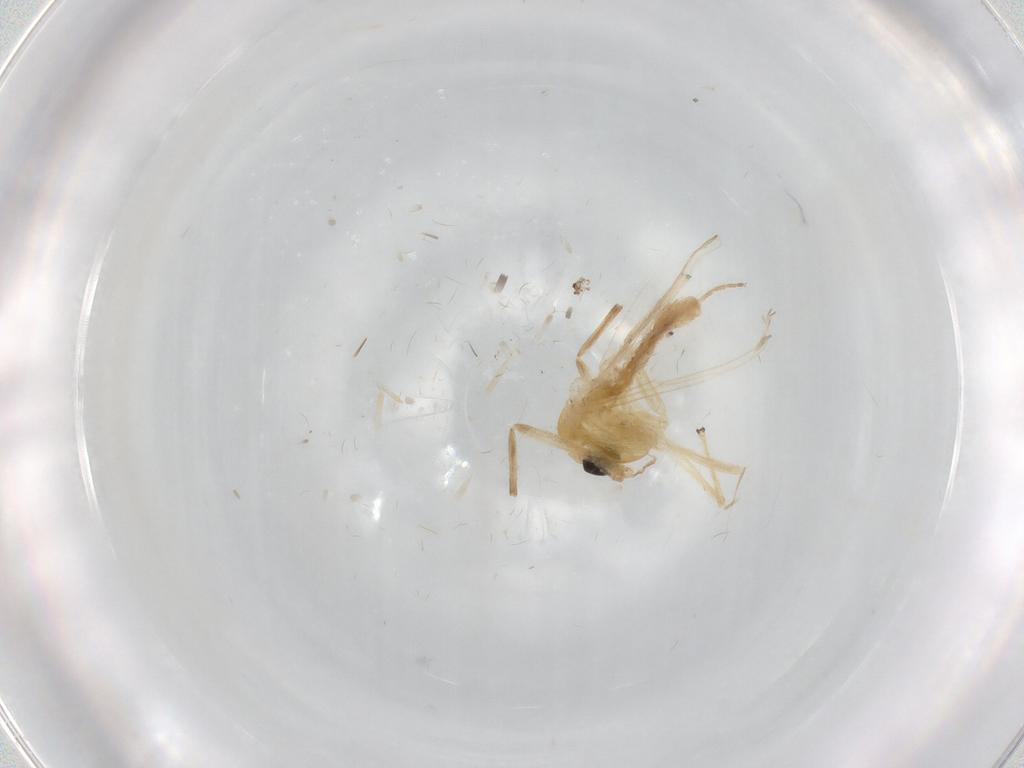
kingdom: Animalia
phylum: Arthropoda
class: Insecta
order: Diptera
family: Chironomidae
